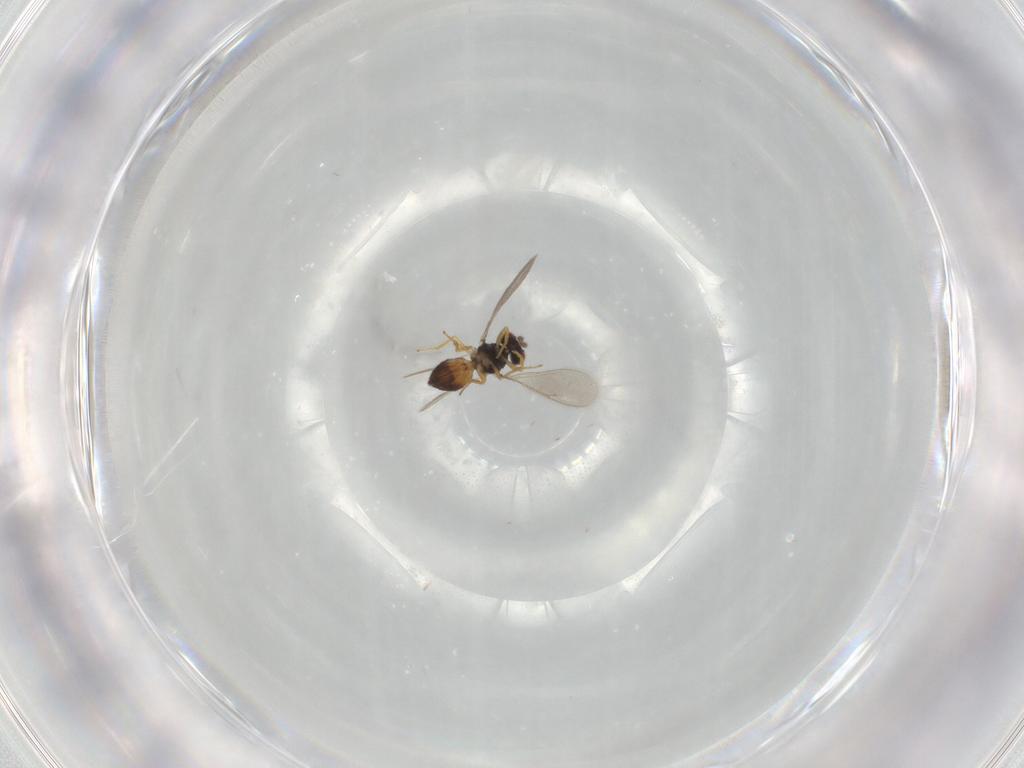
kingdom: Animalia
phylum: Arthropoda
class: Insecta
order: Hymenoptera
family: Eulophidae
